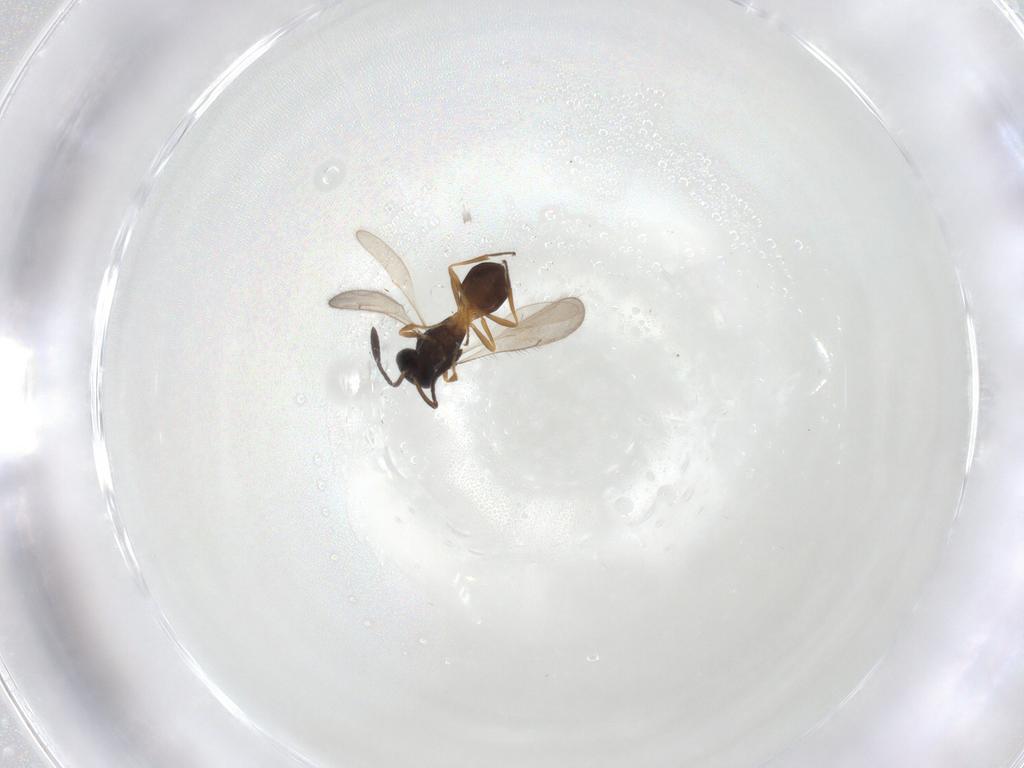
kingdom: Animalia
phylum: Arthropoda
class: Insecta
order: Hymenoptera
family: Scelionidae
